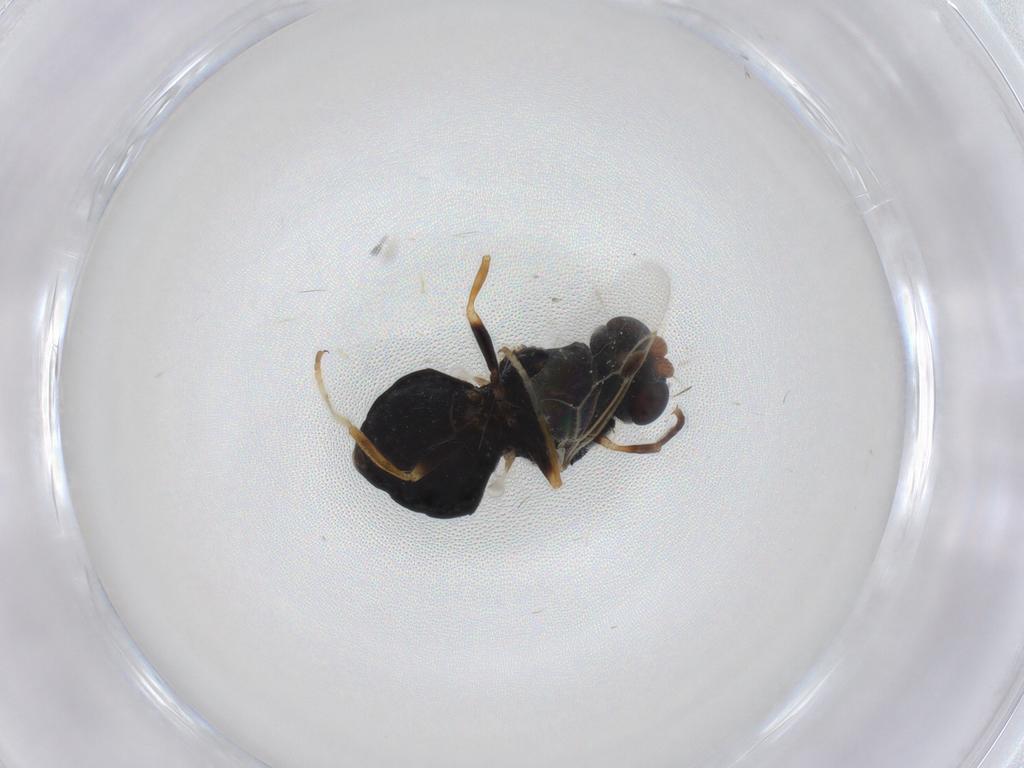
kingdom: Animalia
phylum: Arthropoda
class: Insecta
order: Diptera
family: Stratiomyidae
